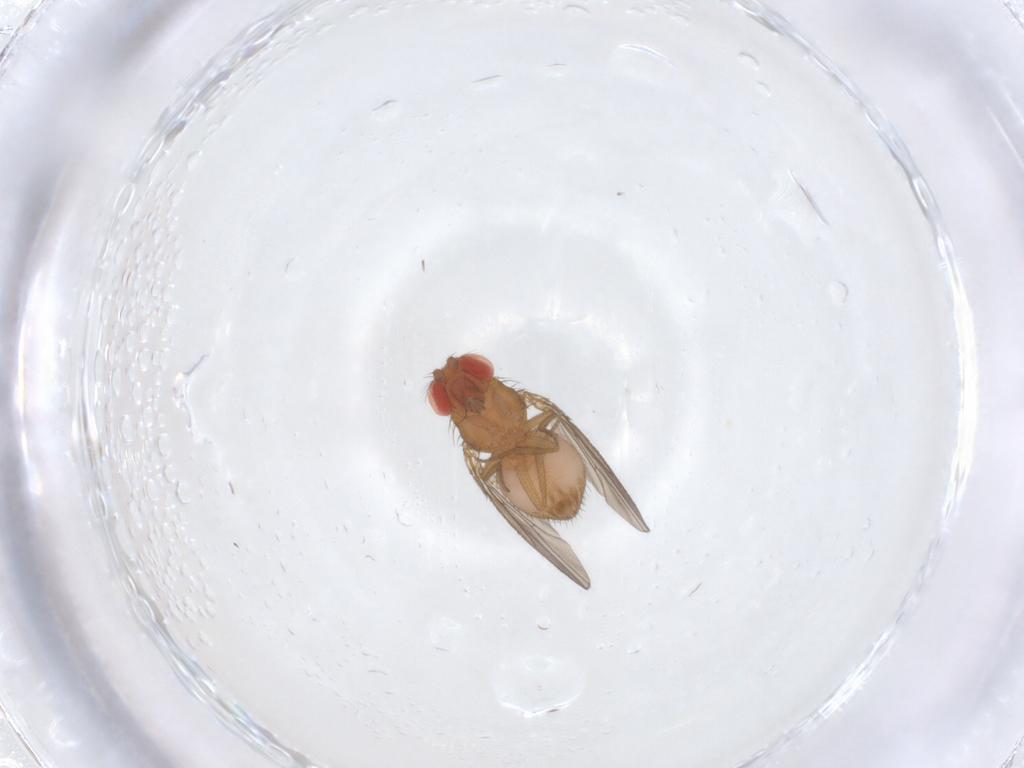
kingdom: Animalia
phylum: Arthropoda
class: Insecta
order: Diptera
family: Drosophilidae
